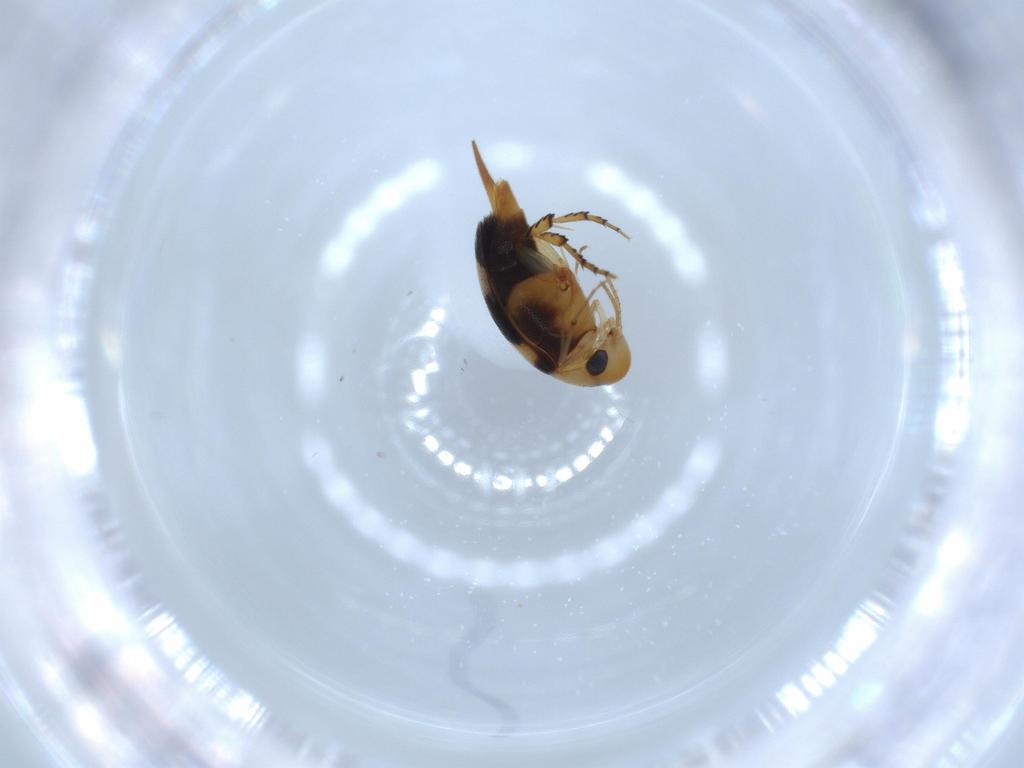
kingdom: Animalia
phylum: Arthropoda
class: Insecta
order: Coleoptera
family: Mordellidae
